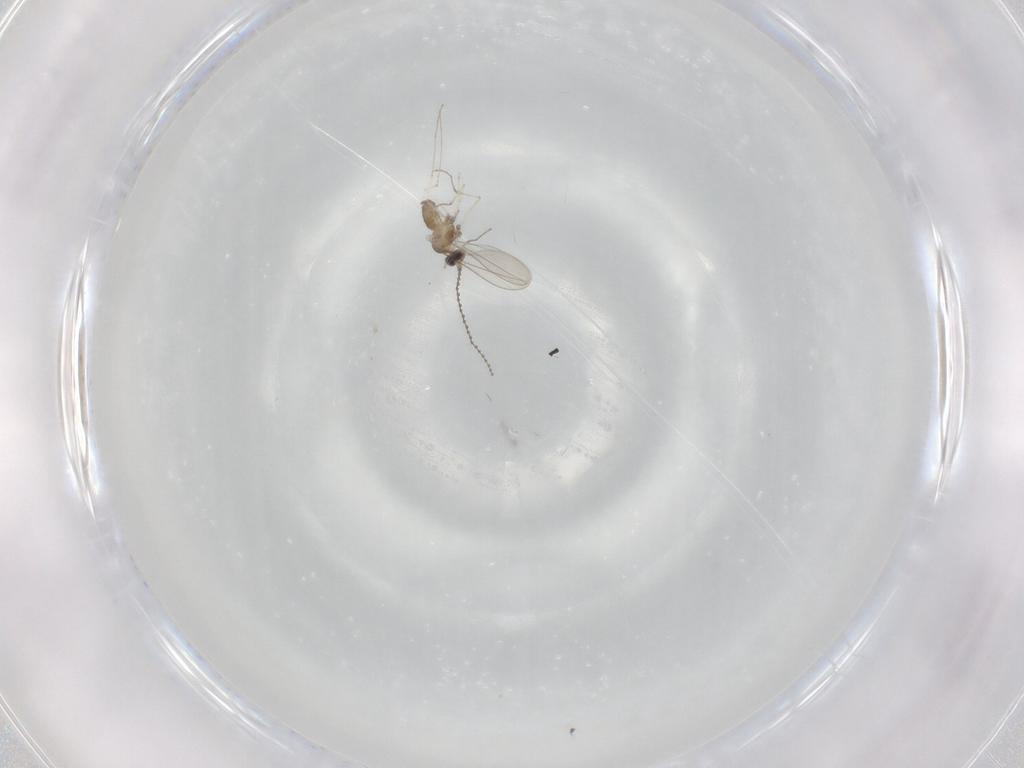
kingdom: Animalia
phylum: Arthropoda
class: Insecta
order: Diptera
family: Cecidomyiidae
